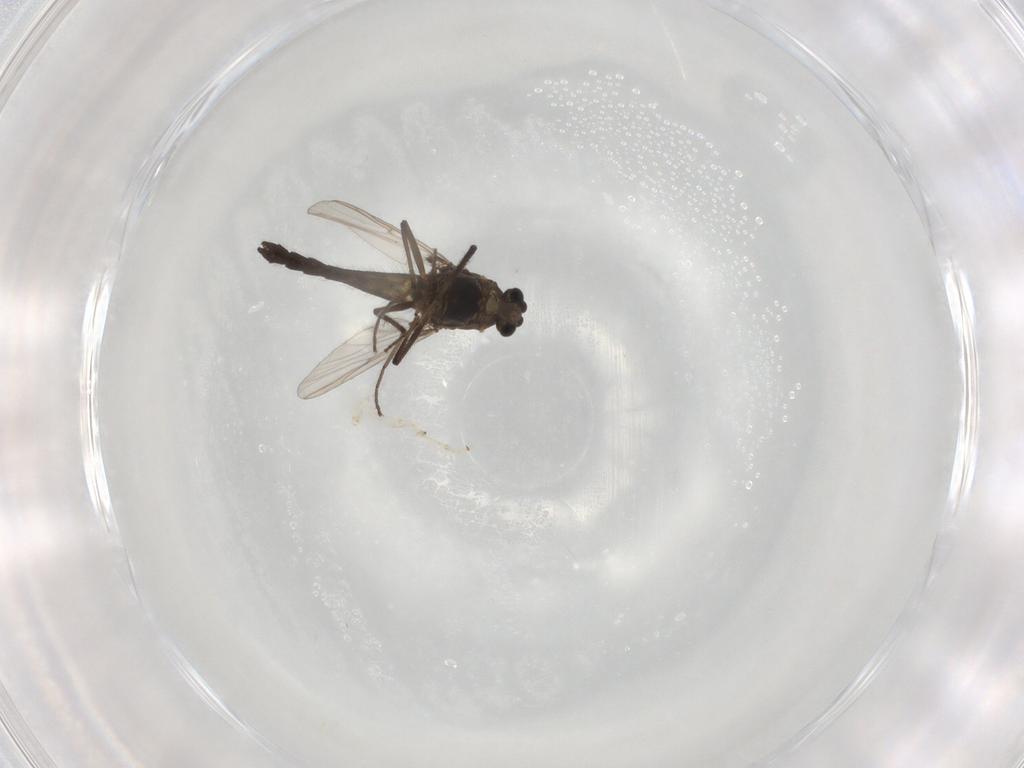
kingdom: Animalia
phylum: Arthropoda
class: Insecta
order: Diptera
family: Chironomidae
